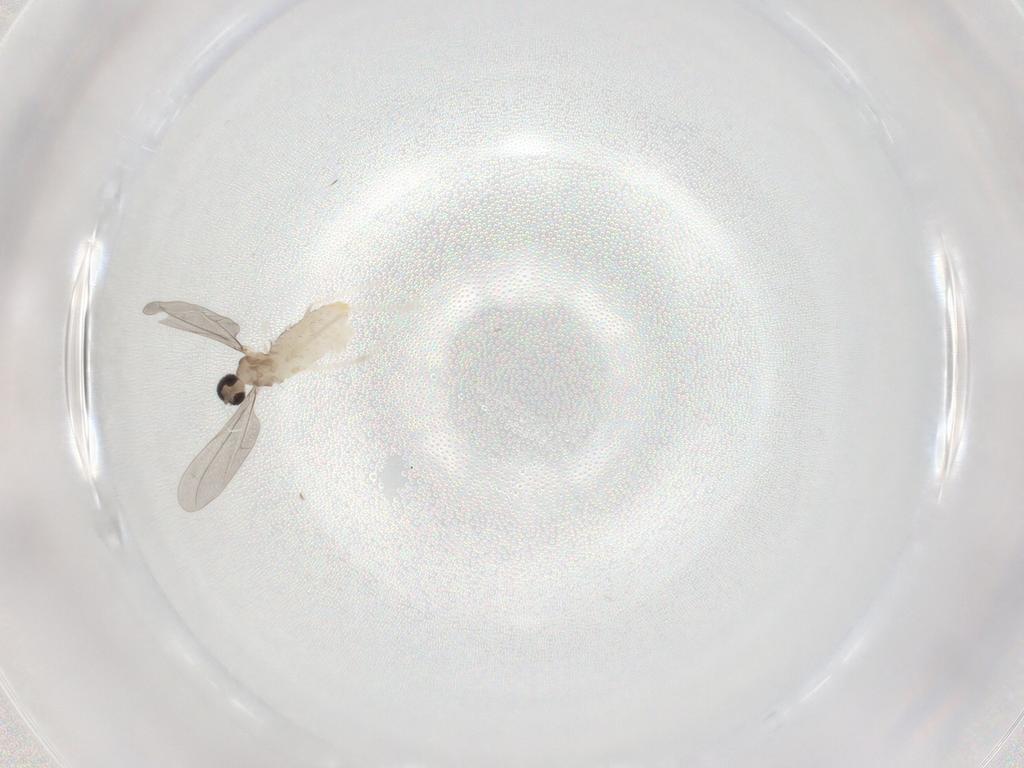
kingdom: Animalia
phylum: Arthropoda
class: Insecta
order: Diptera
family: Cecidomyiidae
